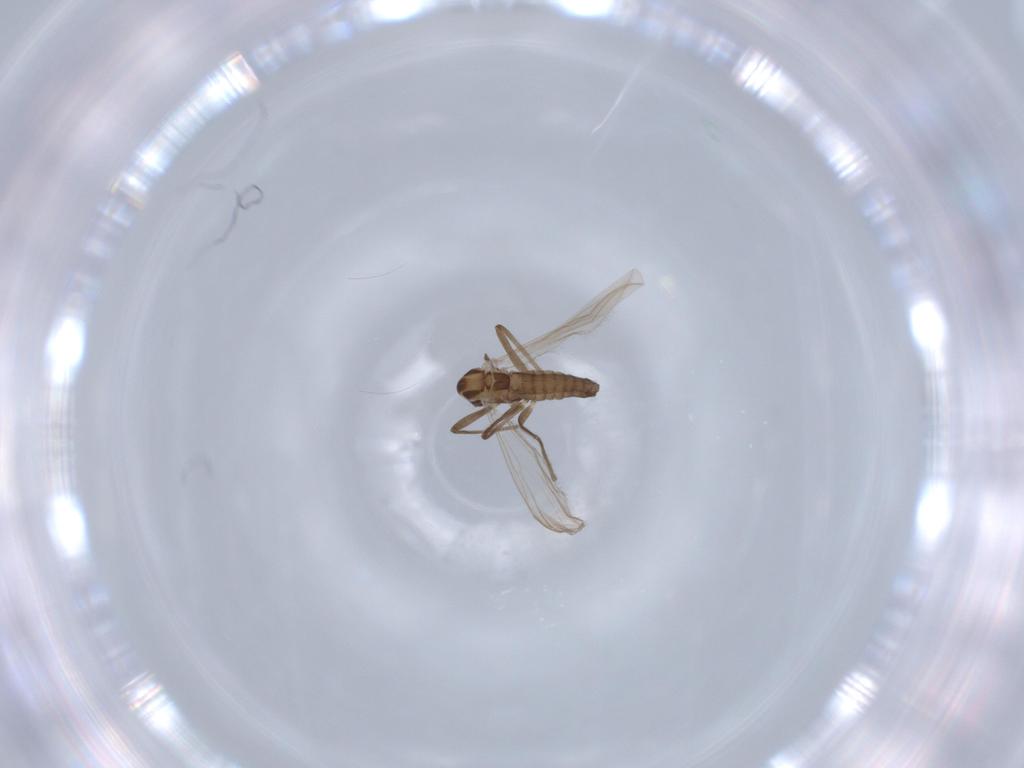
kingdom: Animalia
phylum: Arthropoda
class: Insecta
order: Diptera
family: Chironomidae
